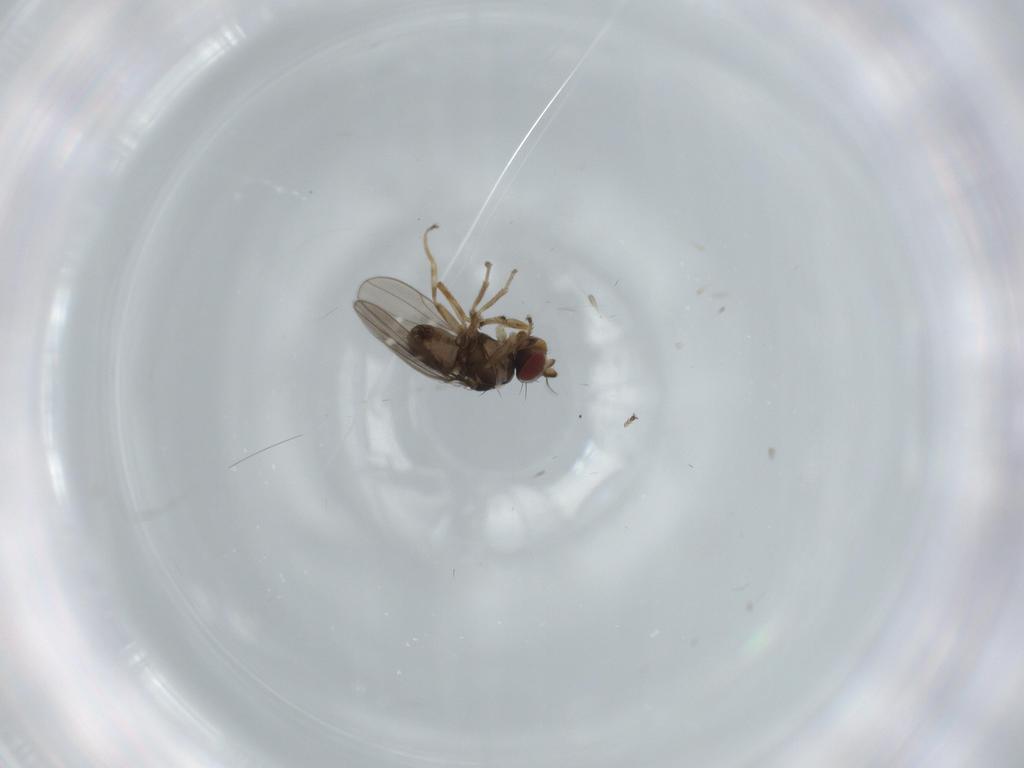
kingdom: Animalia
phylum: Arthropoda
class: Insecta
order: Diptera
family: Ephydridae
